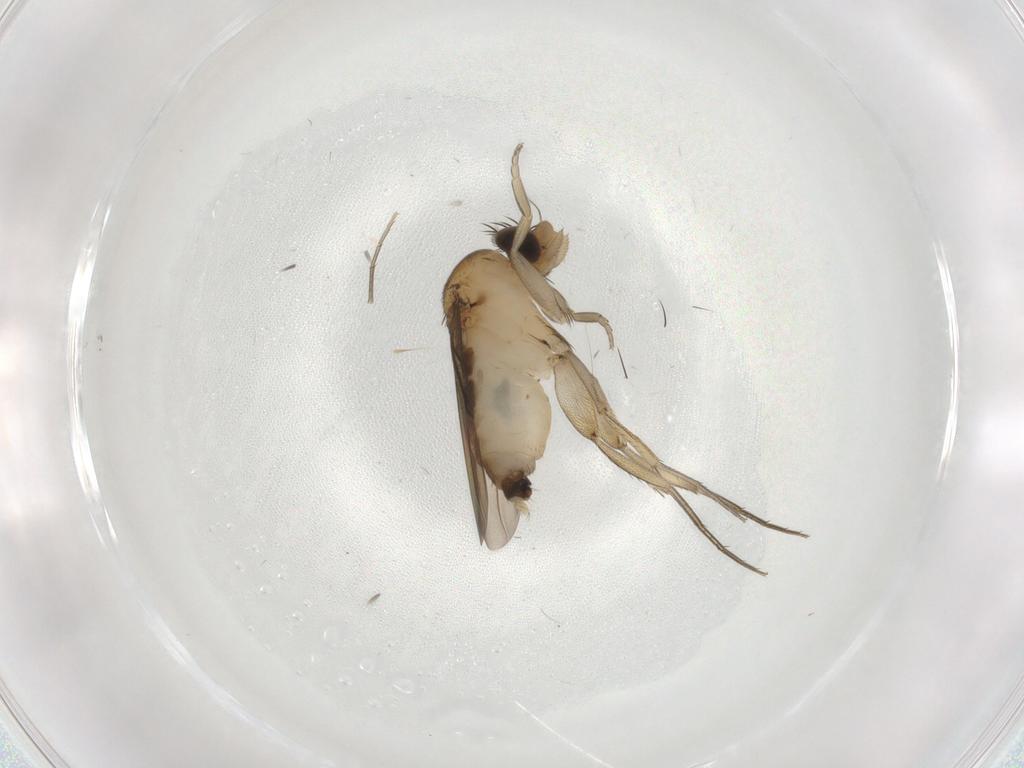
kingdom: Animalia
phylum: Arthropoda
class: Insecta
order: Diptera
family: Phoridae
